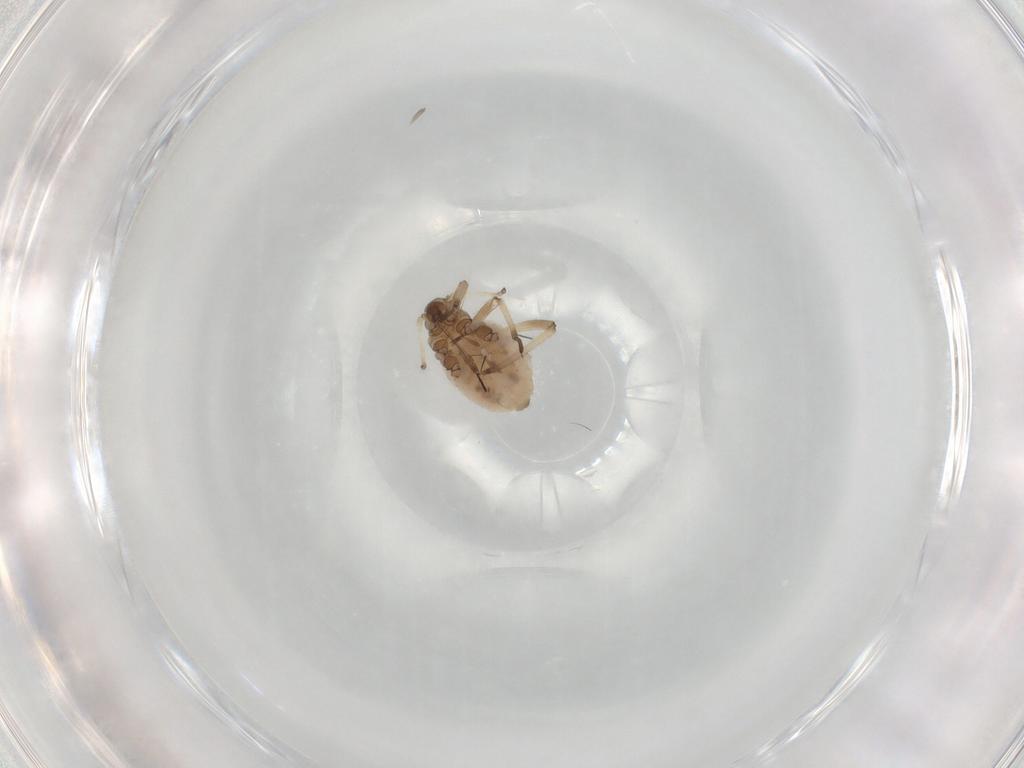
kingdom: Animalia
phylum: Arthropoda
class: Insecta
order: Hemiptera
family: Aphididae
